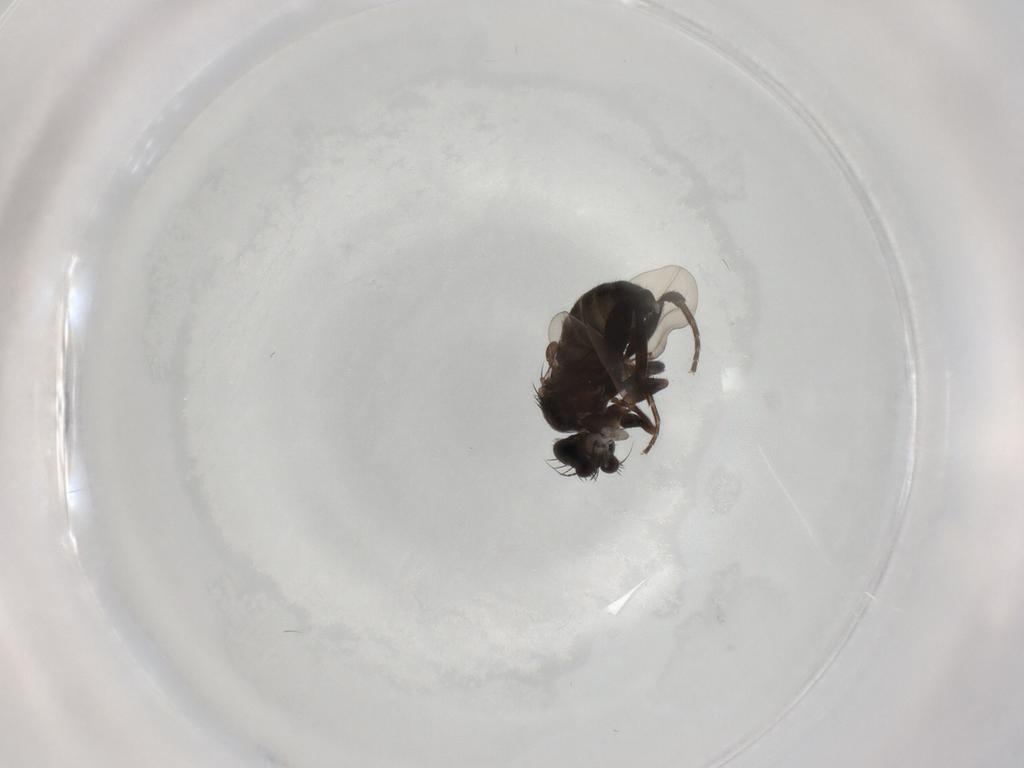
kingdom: Animalia
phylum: Arthropoda
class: Insecta
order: Diptera
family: Phoridae
